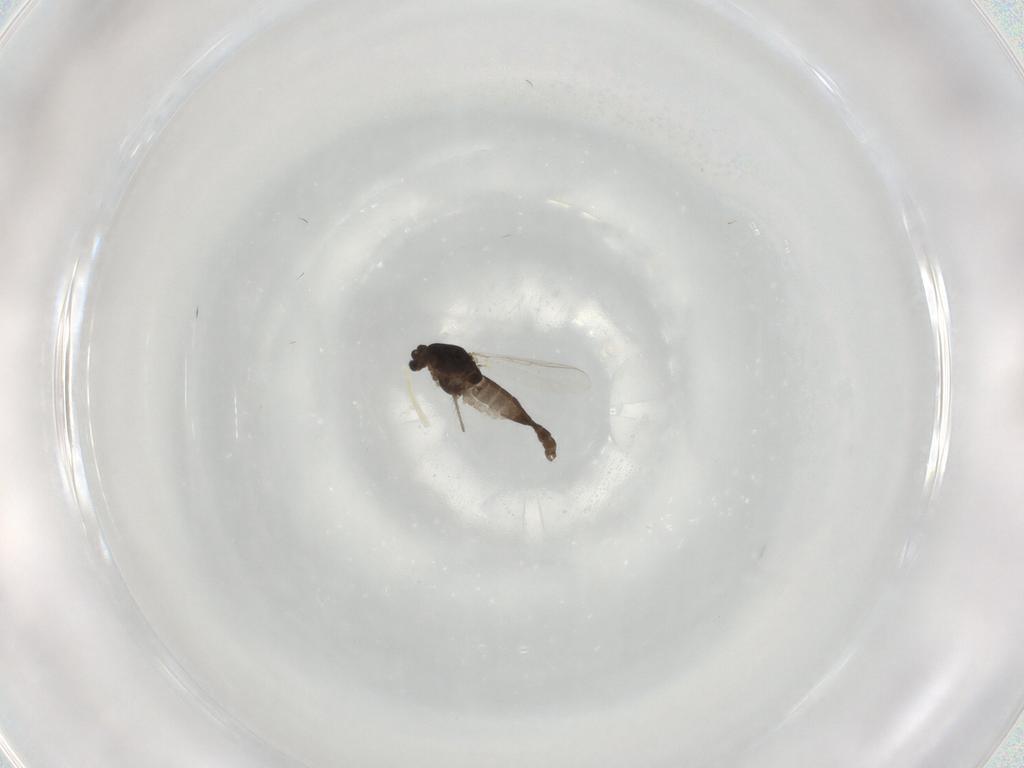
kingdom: Animalia
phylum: Arthropoda
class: Insecta
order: Diptera
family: Chironomidae
